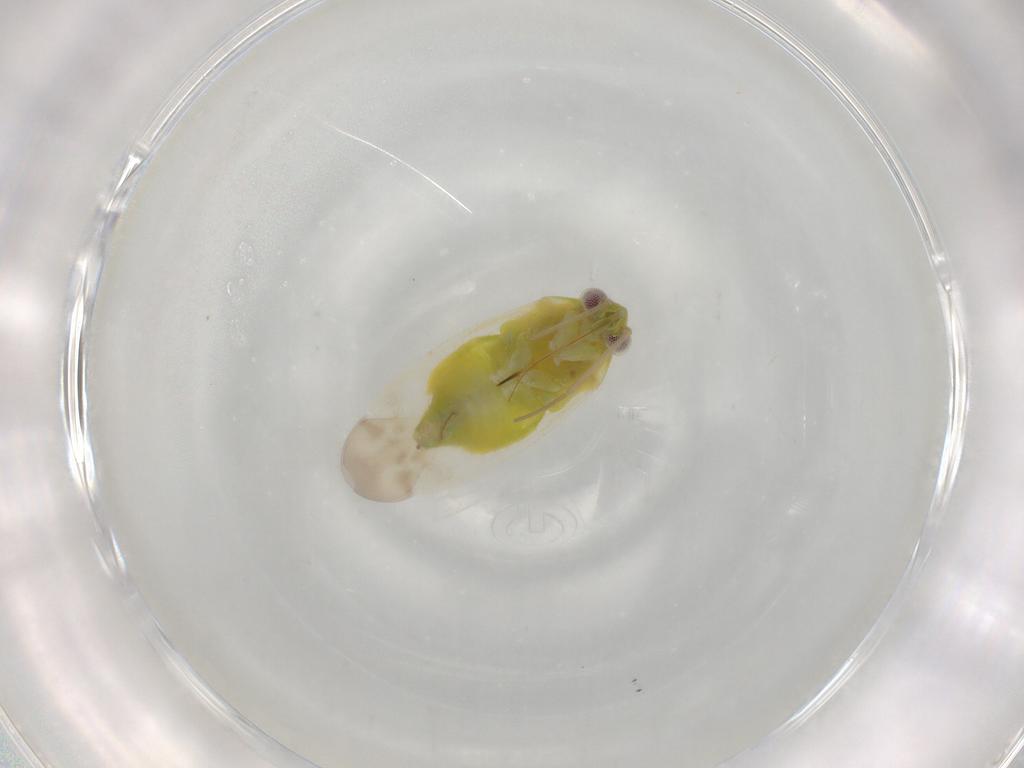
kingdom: Animalia
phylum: Arthropoda
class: Insecta
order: Hemiptera
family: Miridae
